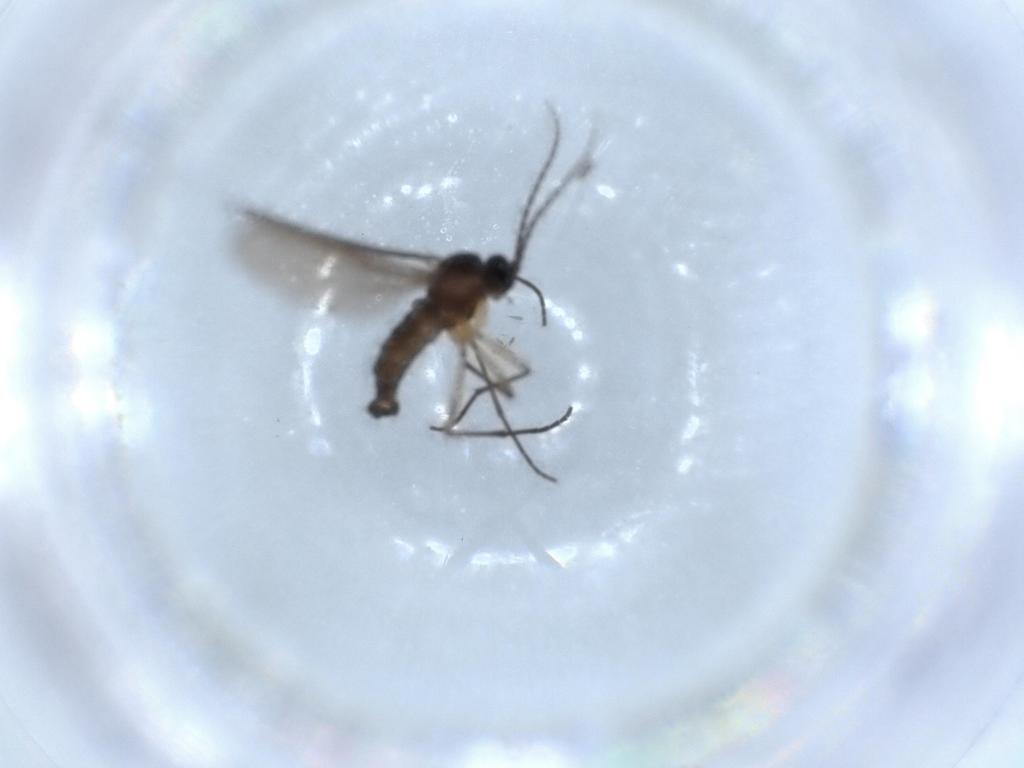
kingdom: Animalia
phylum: Arthropoda
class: Insecta
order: Diptera
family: Sciaridae
